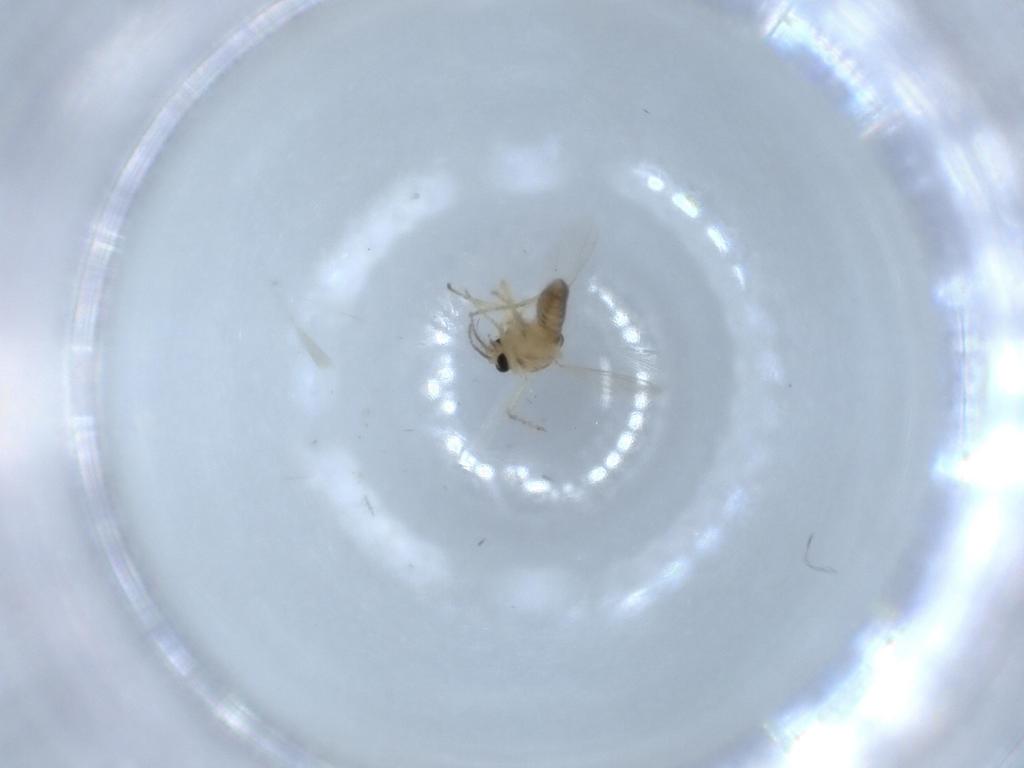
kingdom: Animalia
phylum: Arthropoda
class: Insecta
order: Diptera
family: Ceratopogonidae
